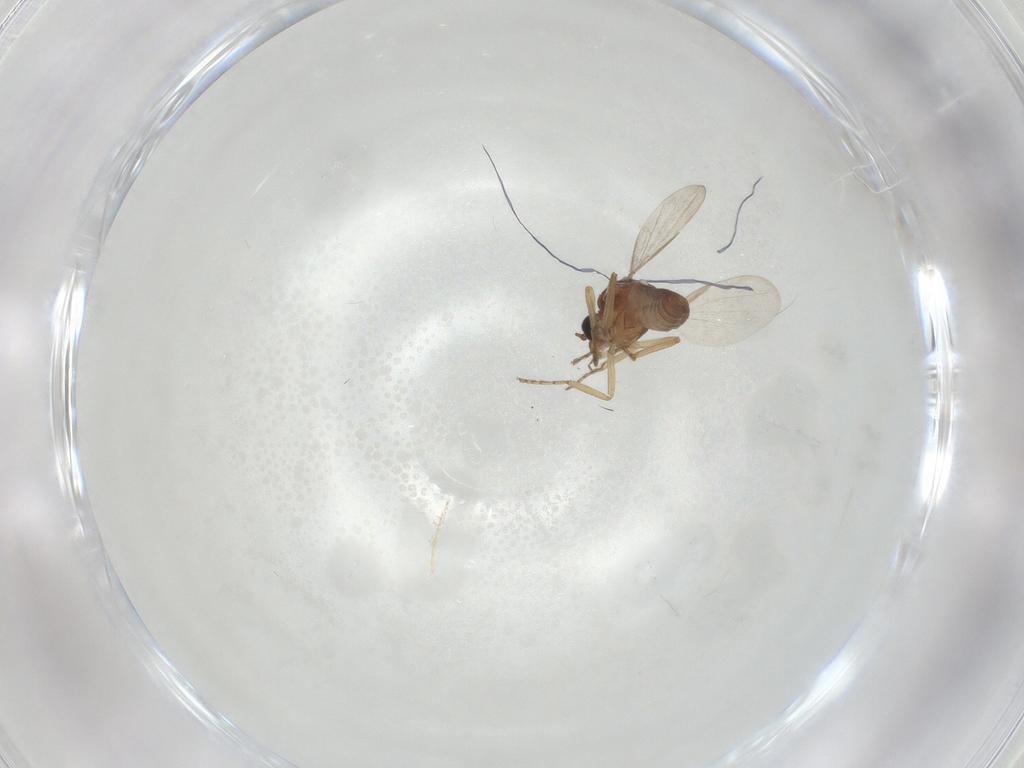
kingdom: Animalia
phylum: Arthropoda
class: Insecta
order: Diptera
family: Ceratopogonidae
